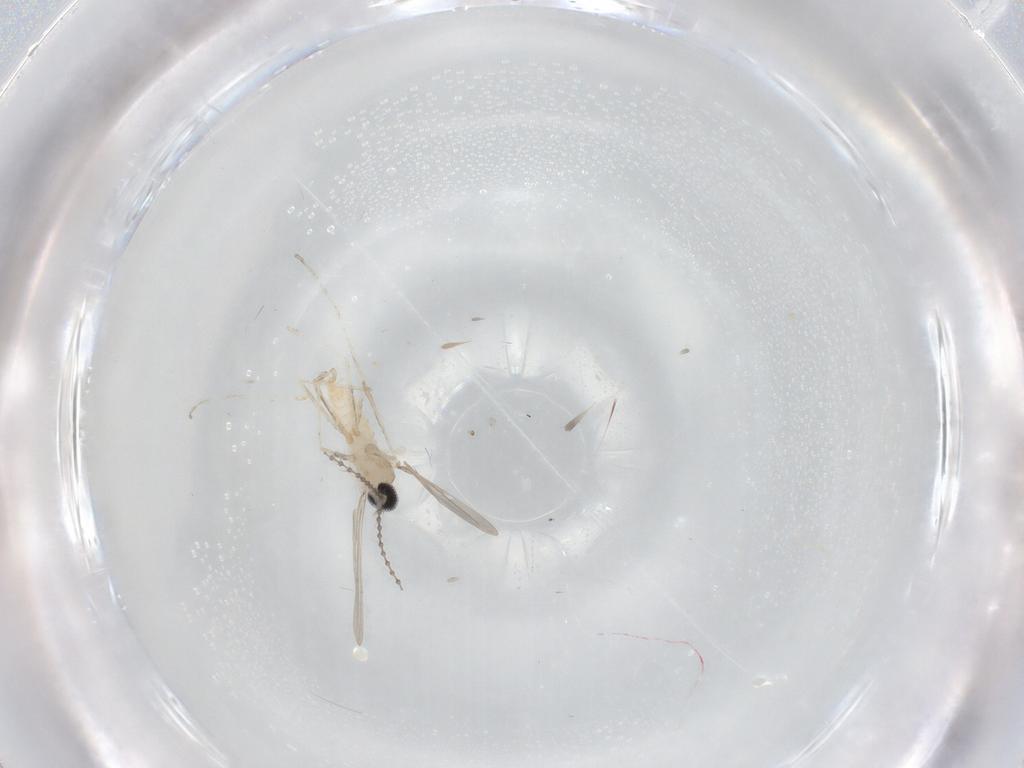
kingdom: Animalia
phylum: Arthropoda
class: Insecta
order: Diptera
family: Cecidomyiidae
